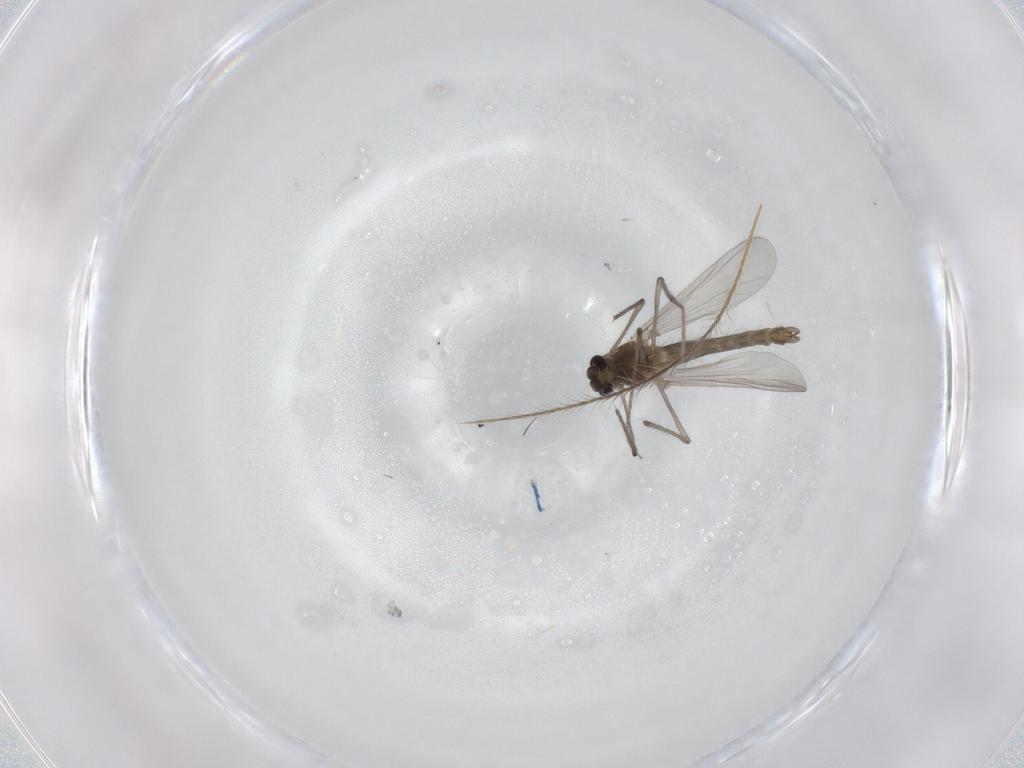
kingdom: Animalia
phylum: Arthropoda
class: Insecta
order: Diptera
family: Chironomidae
